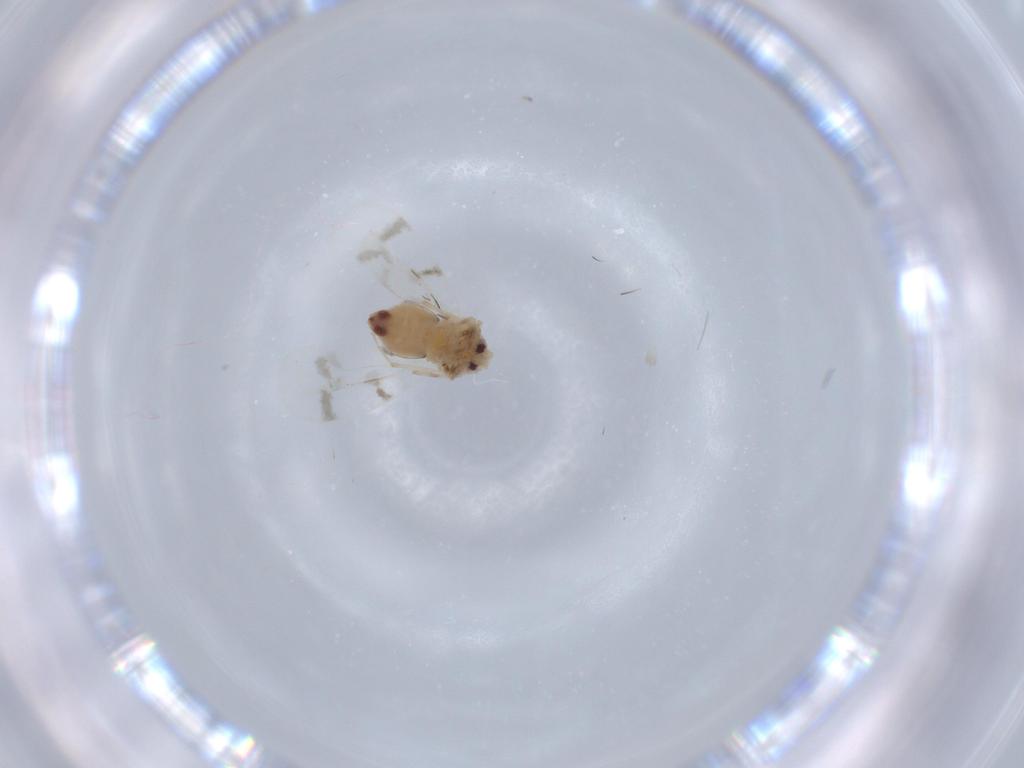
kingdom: Animalia
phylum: Arthropoda
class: Insecta
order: Hemiptera
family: Aleyrodidae
